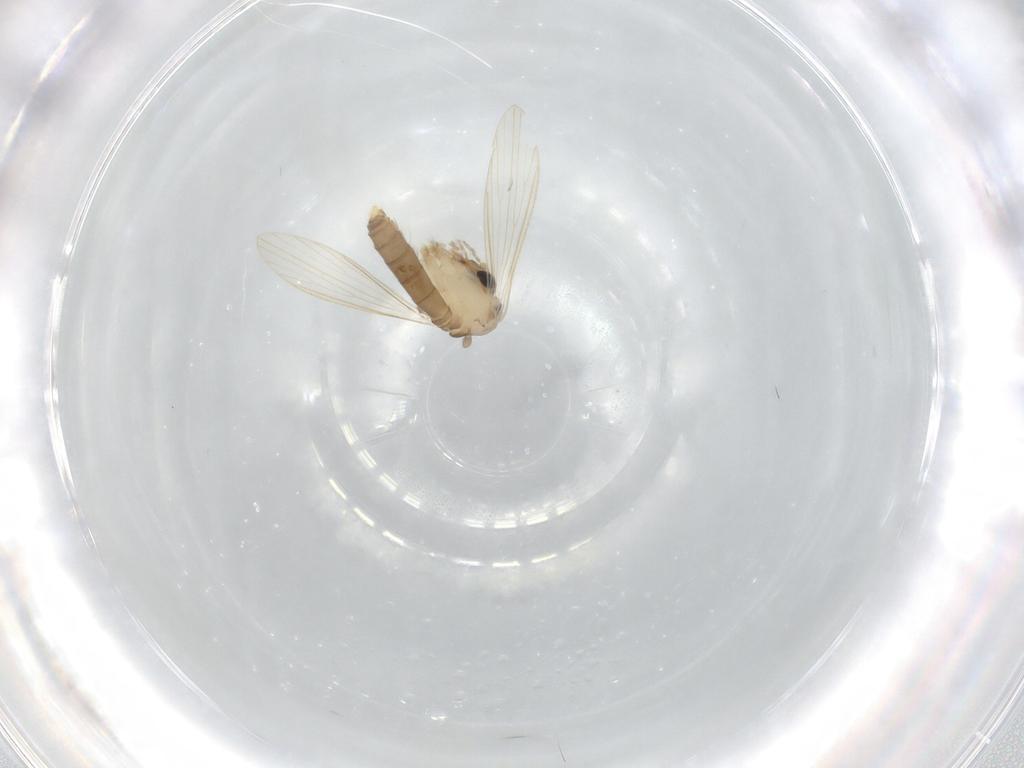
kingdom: Animalia
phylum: Arthropoda
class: Insecta
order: Diptera
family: Psychodidae
